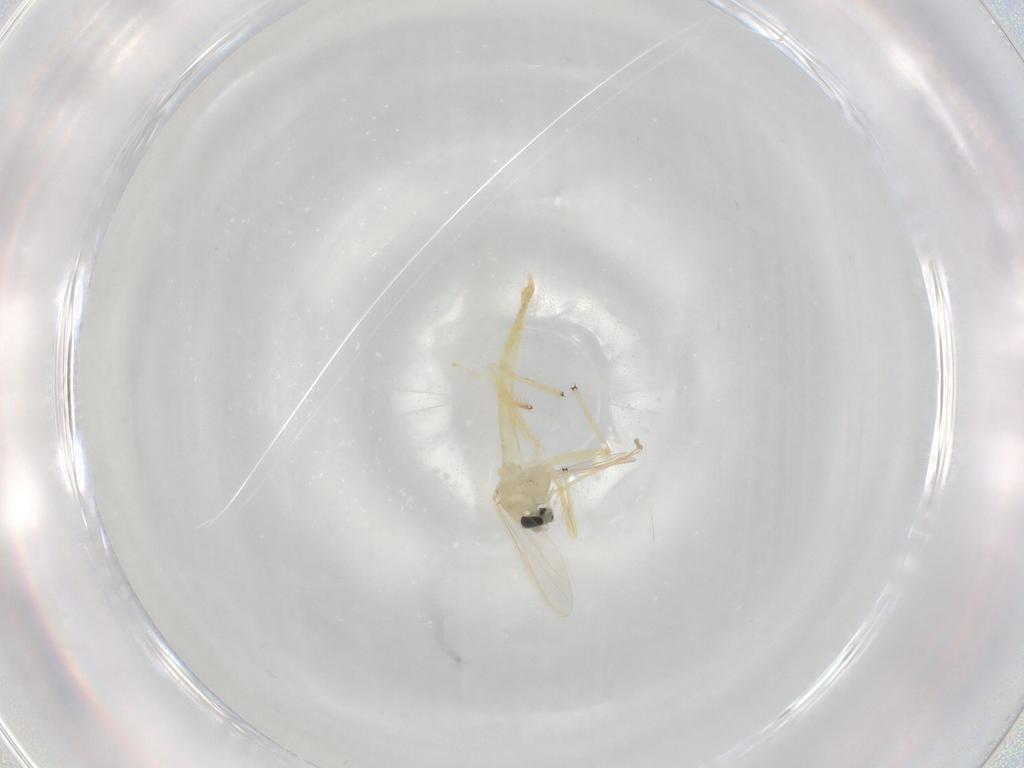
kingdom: Animalia
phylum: Arthropoda
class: Insecta
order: Diptera
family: Chironomidae
